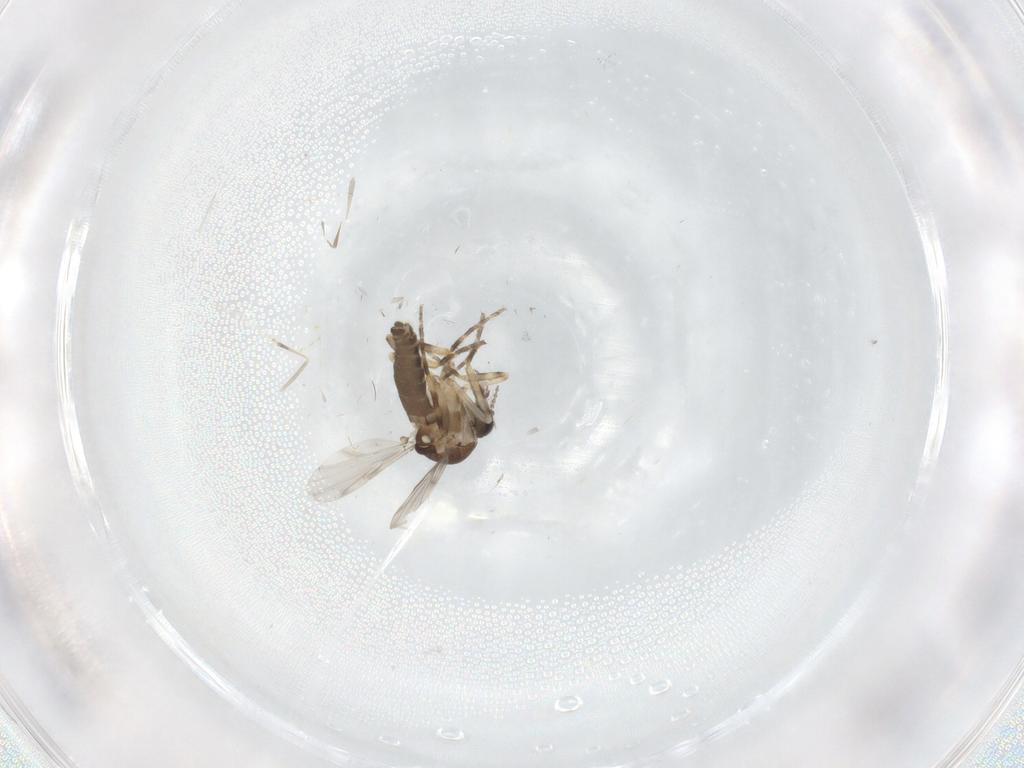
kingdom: Animalia
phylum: Arthropoda
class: Insecta
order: Diptera
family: Ceratopogonidae
